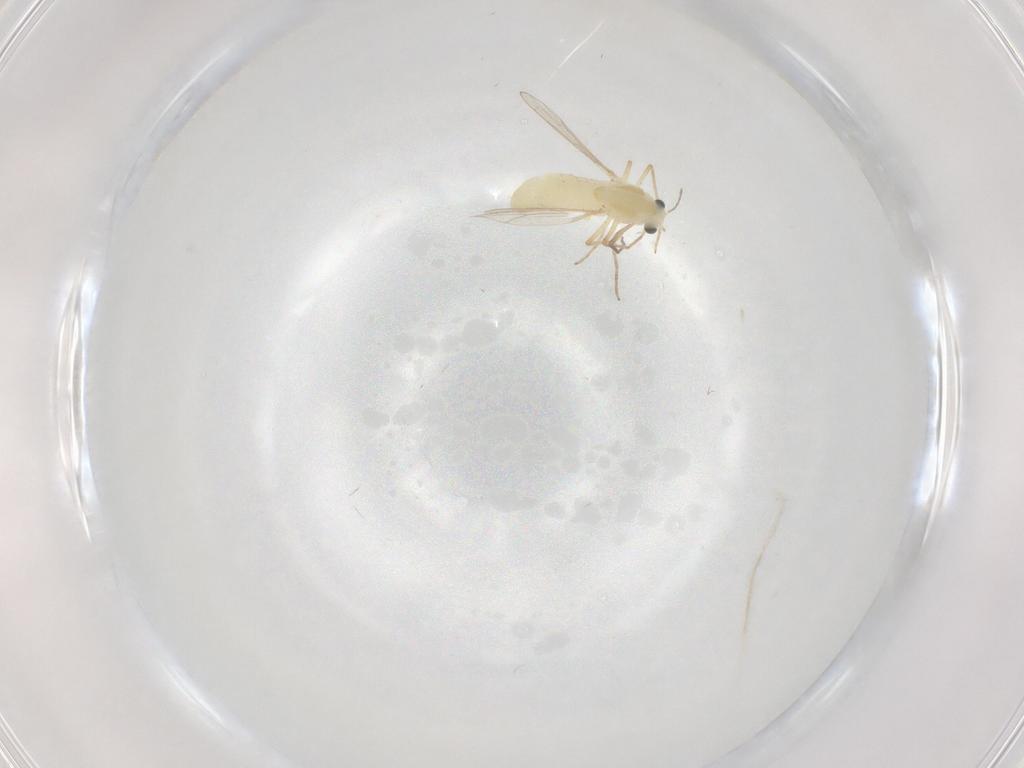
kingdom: Animalia
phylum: Arthropoda
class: Insecta
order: Diptera
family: Chironomidae
